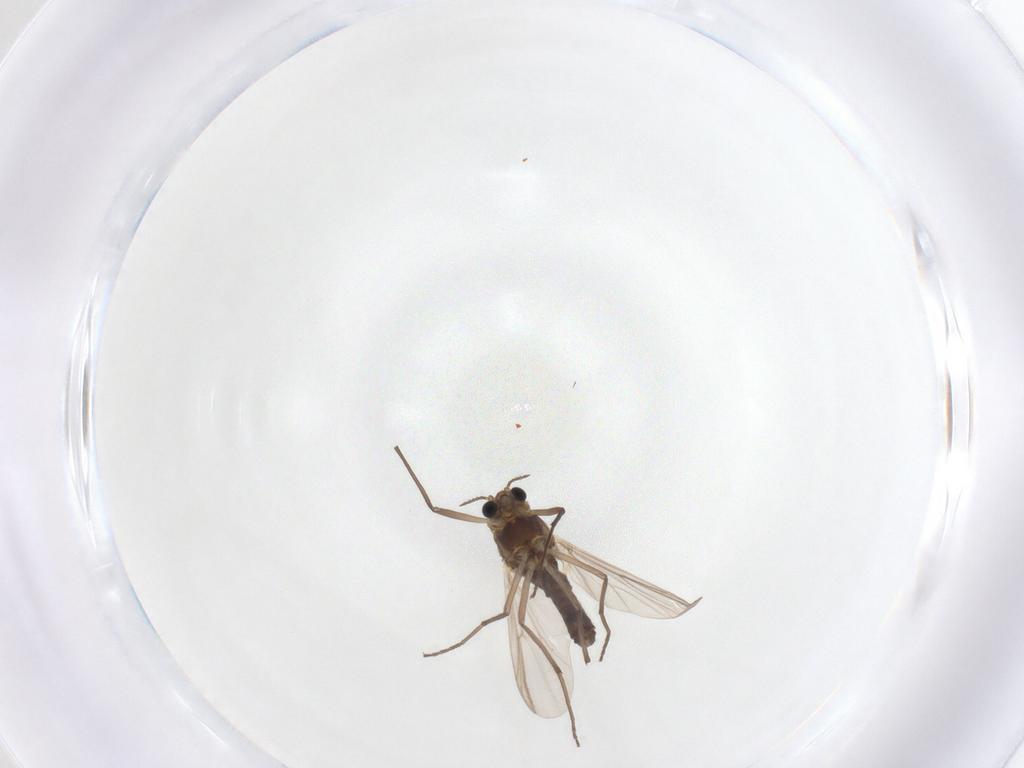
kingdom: Animalia
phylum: Arthropoda
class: Insecta
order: Diptera
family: Chironomidae
